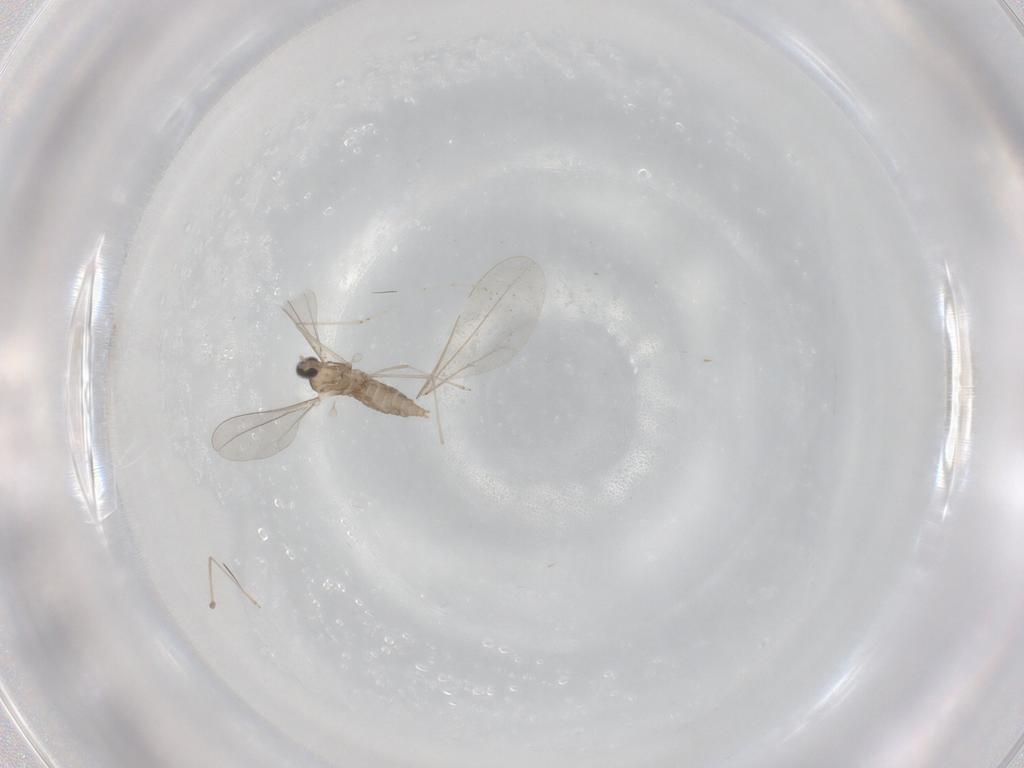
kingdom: Animalia
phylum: Arthropoda
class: Insecta
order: Diptera
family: Cecidomyiidae
